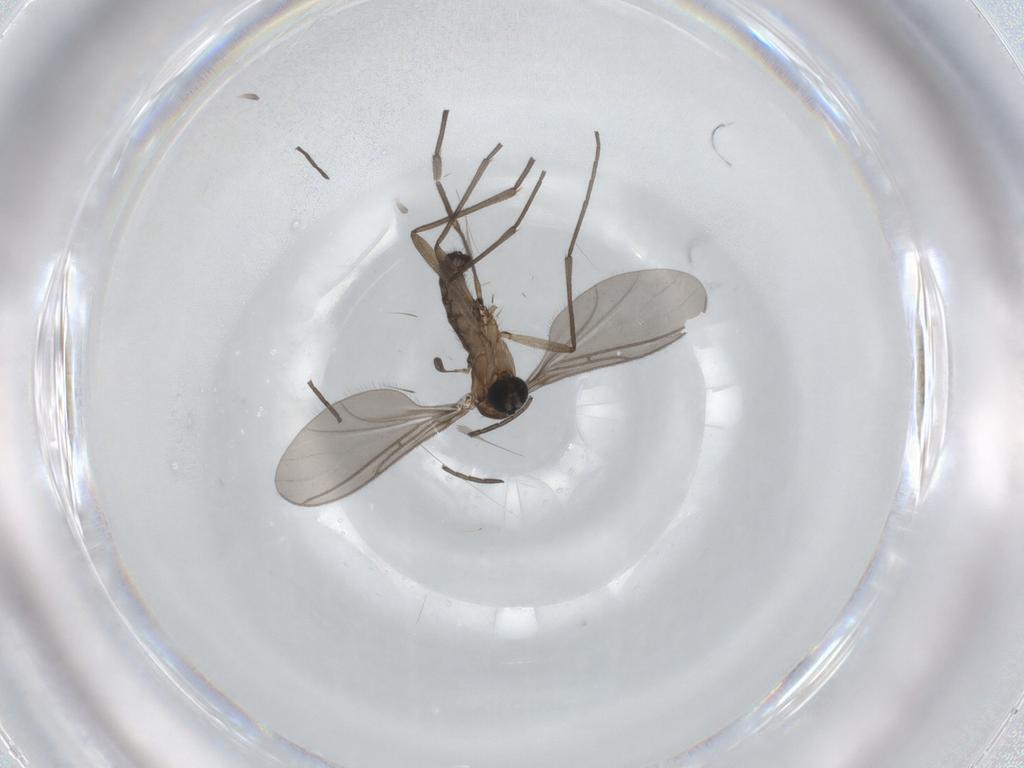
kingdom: Animalia
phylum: Arthropoda
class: Insecta
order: Diptera
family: Sciaridae
